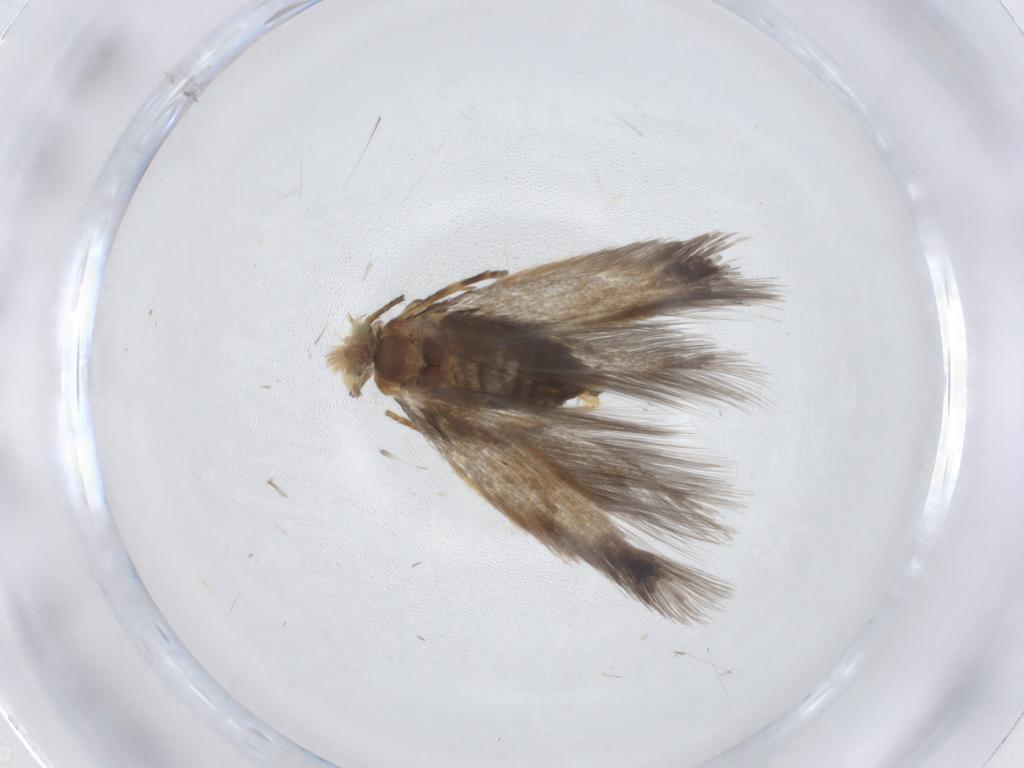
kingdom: Animalia
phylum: Arthropoda
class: Insecta
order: Lepidoptera
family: Nepticulidae
